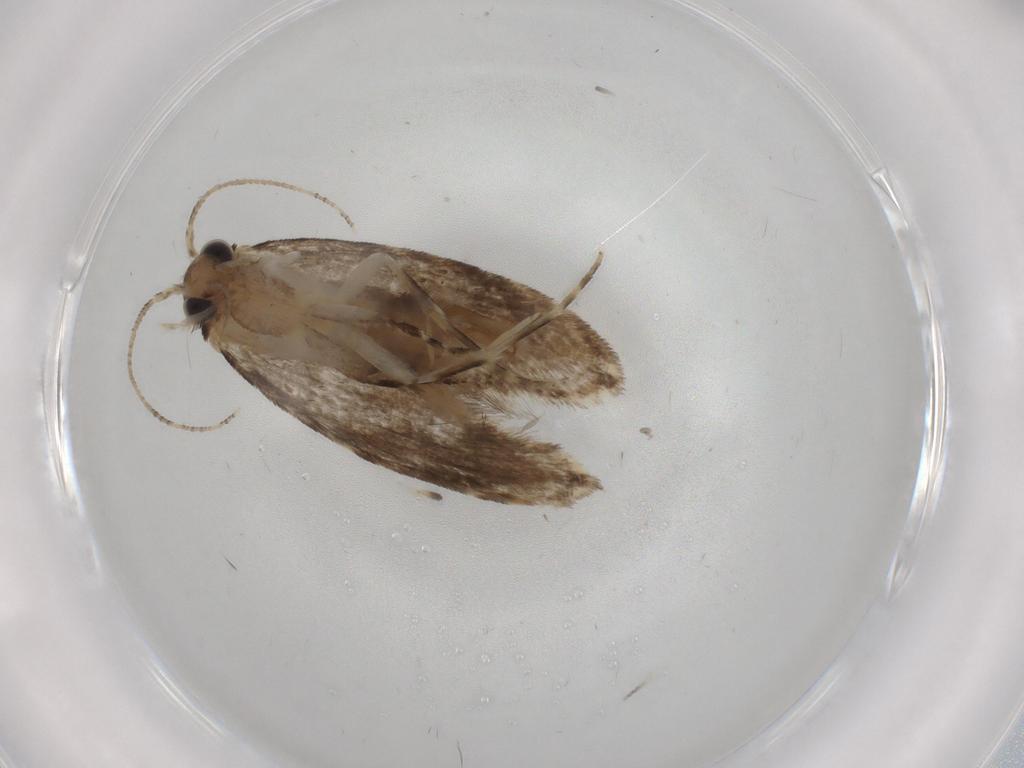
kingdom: Animalia
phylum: Arthropoda
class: Insecta
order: Lepidoptera
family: Tineidae
